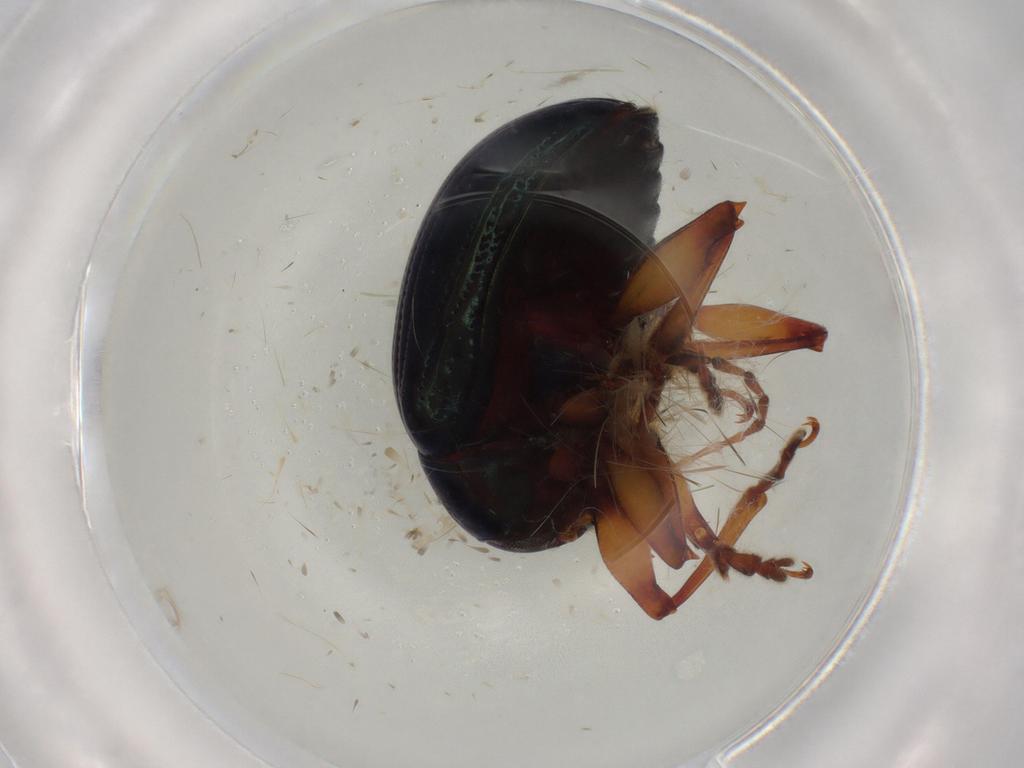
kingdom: Animalia
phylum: Arthropoda
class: Insecta
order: Coleoptera
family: Chrysomelidae
